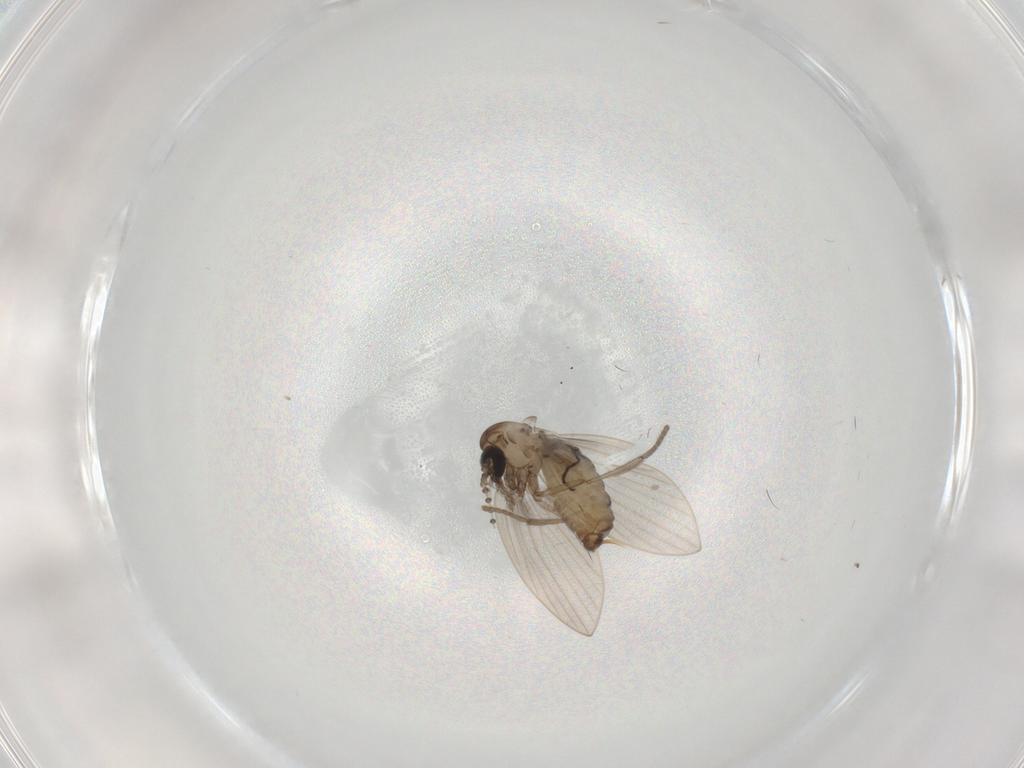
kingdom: Animalia
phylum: Arthropoda
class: Insecta
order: Diptera
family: Psychodidae
